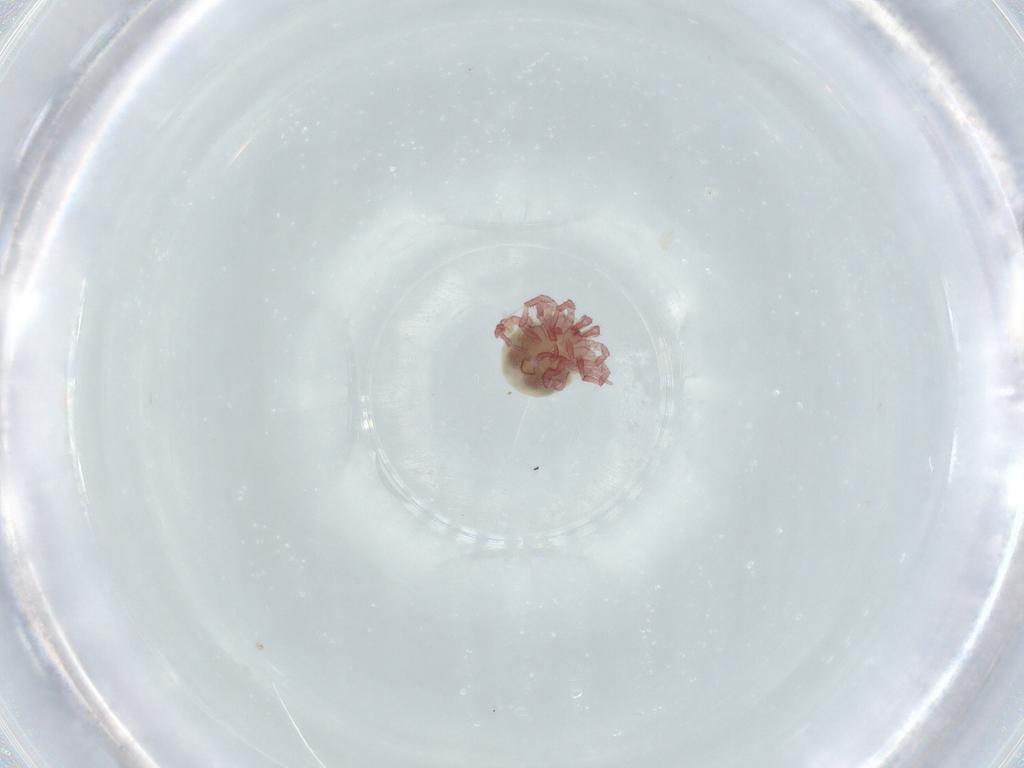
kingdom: Animalia
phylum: Arthropoda
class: Arachnida
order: Trombidiformes
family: Pionidae
